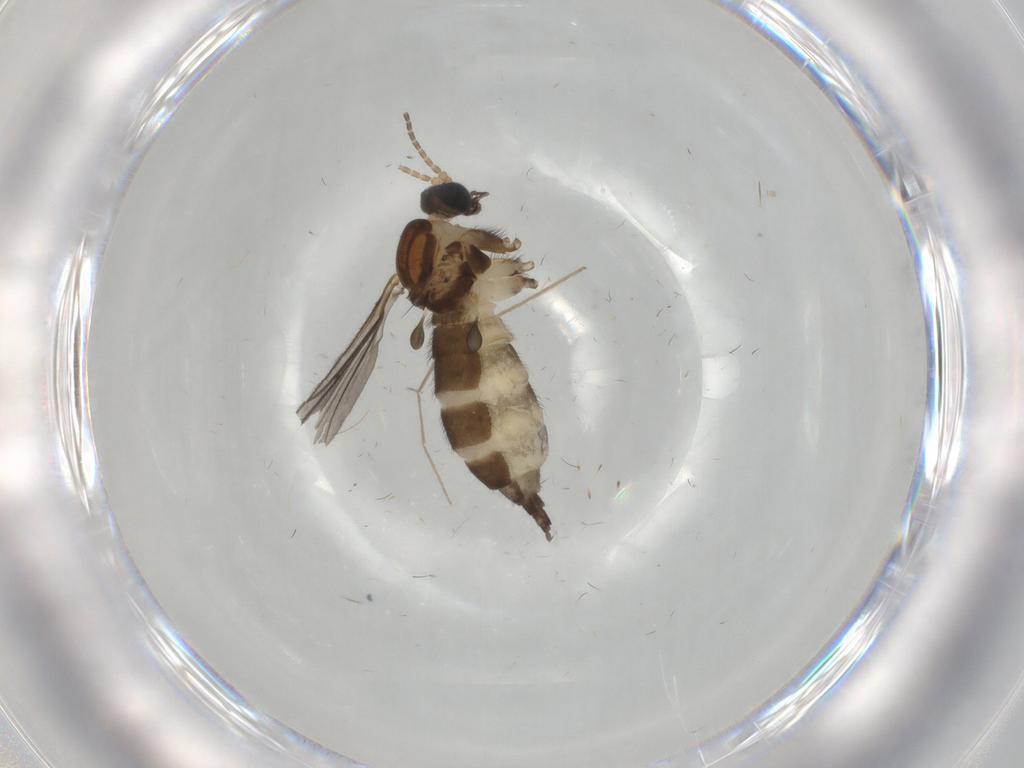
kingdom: Animalia
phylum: Arthropoda
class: Insecta
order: Diptera
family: Sciaridae
